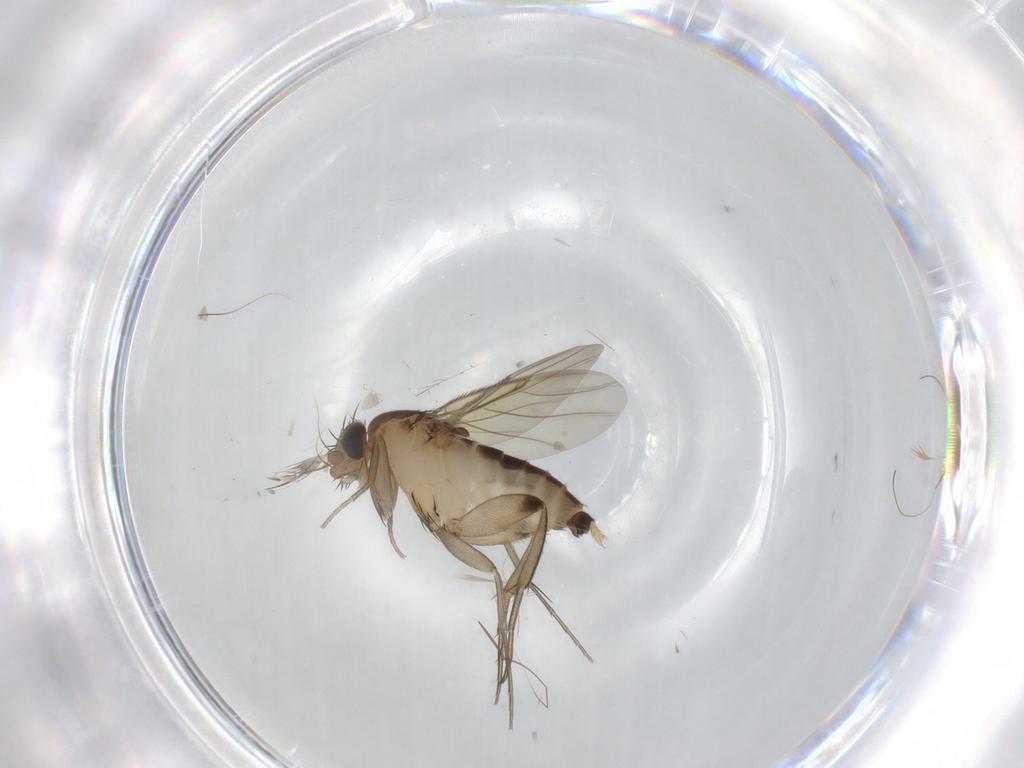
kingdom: Animalia
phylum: Arthropoda
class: Insecta
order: Diptera
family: Phoridae
